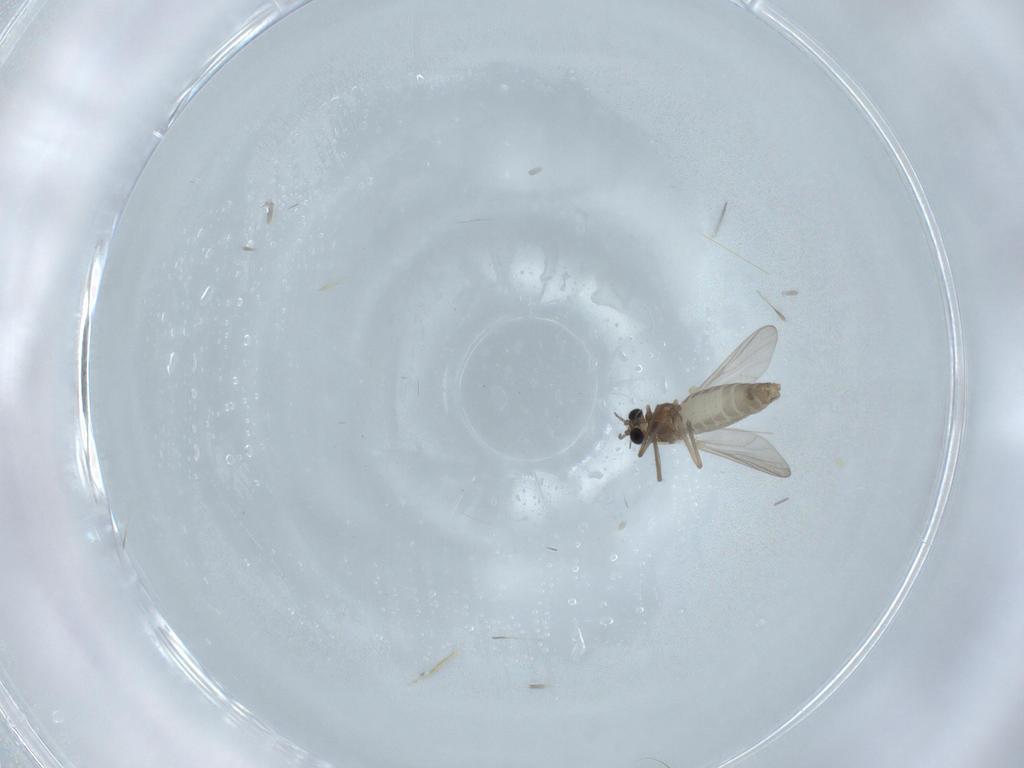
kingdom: Animalia
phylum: Arthropoda
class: Insecta
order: Diptera
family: Chironomidae
